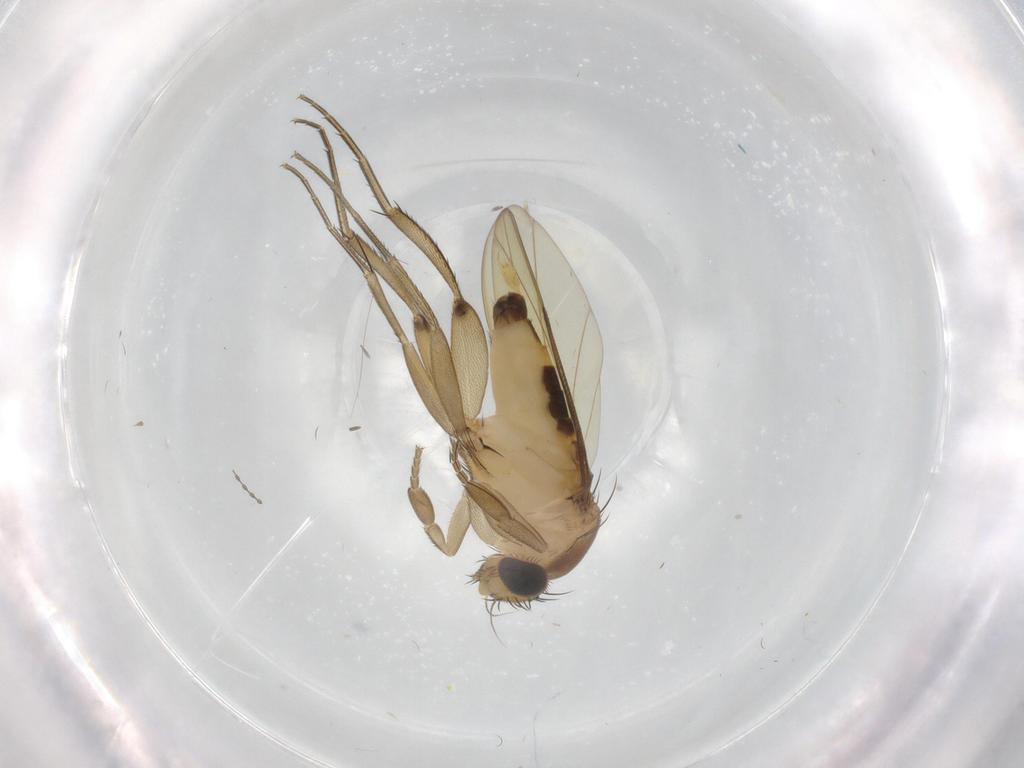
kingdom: Animalia
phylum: Arthropoda
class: Insecta
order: Diptera
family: Phoridae
